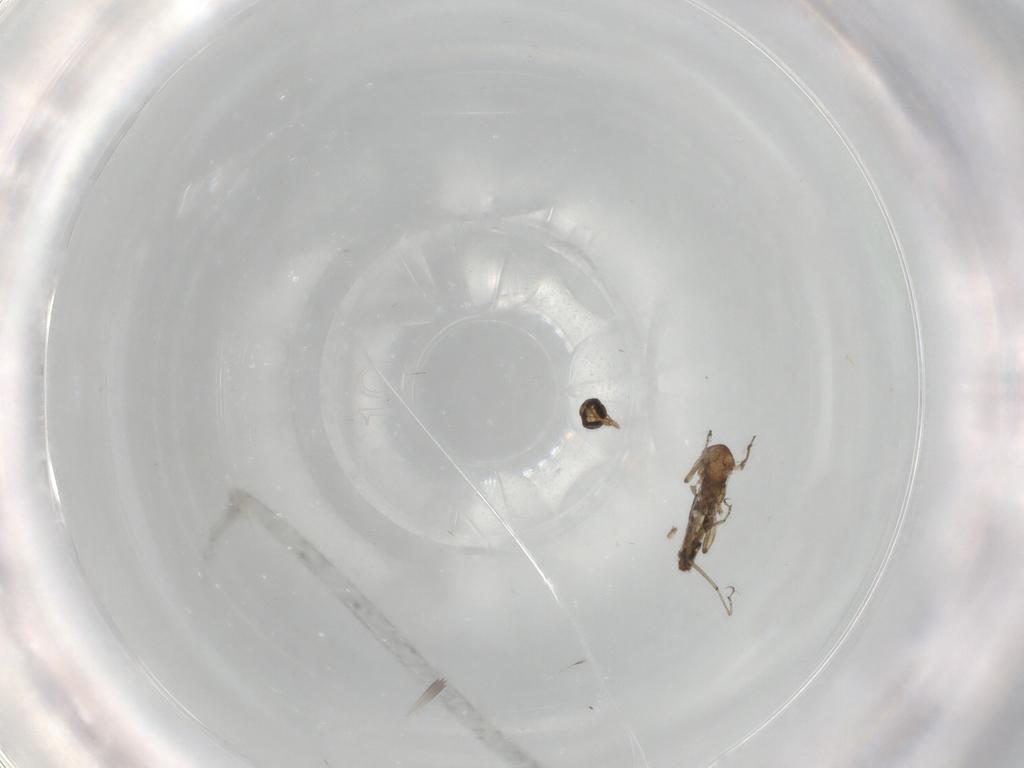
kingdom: Animalia
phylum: Arthropoda
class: Insecta
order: Diptera
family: Ceratopogonidae
